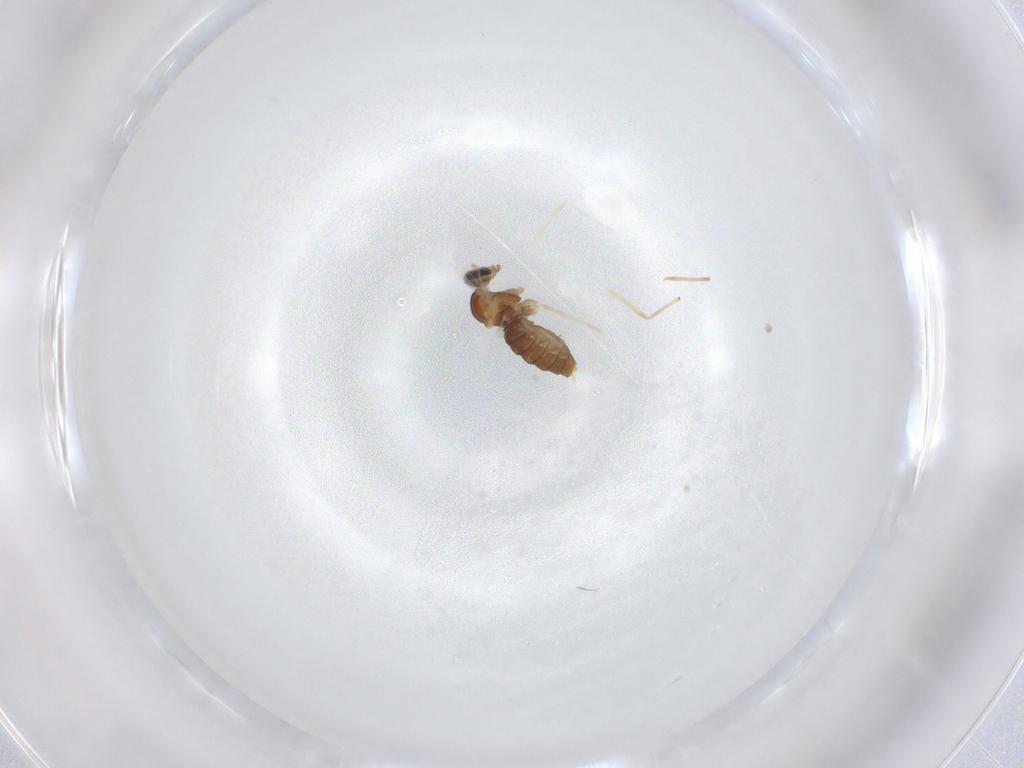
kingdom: Animalia
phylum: Arthropoda
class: Insecta
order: Diptera
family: Cecidomyiidae
